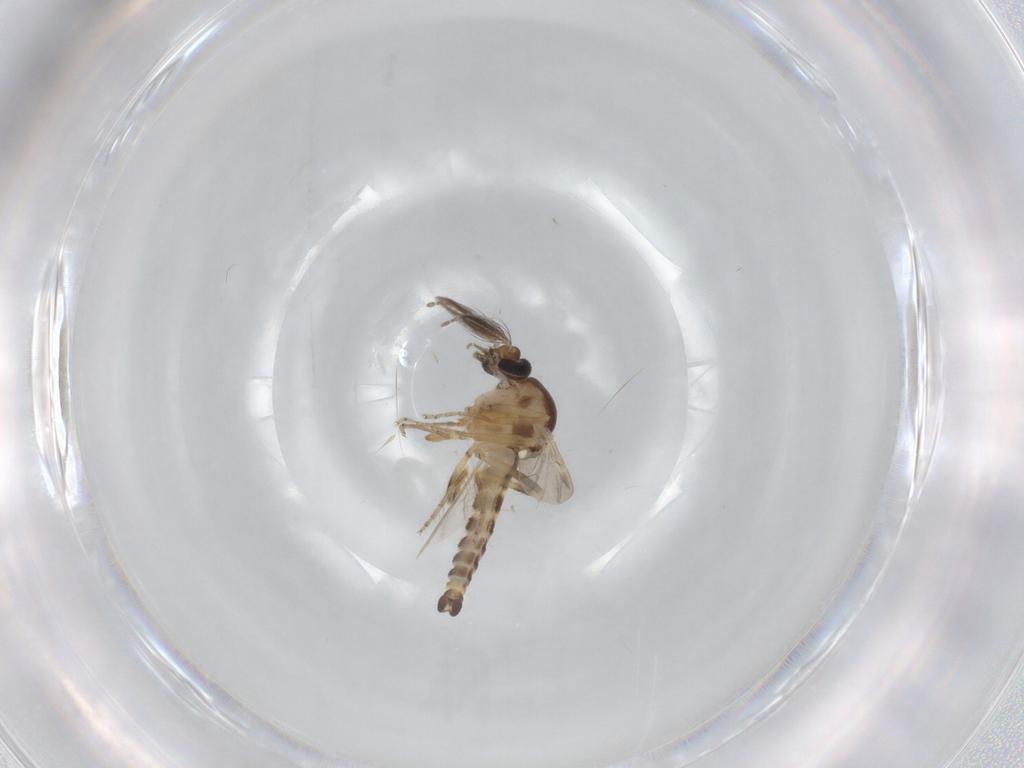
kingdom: Animalia
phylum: Arthropoda
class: Insecta
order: Diptera
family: Ceratopogonidae
